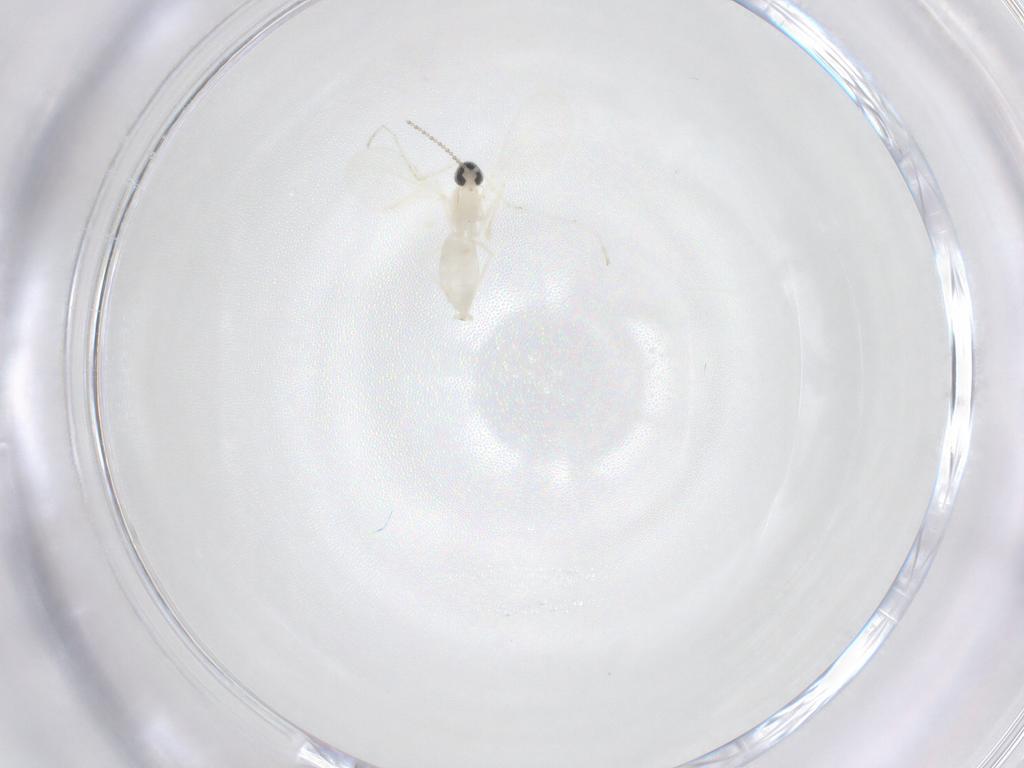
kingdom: Animalia
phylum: Arthropoda
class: Insecta
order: Diptera
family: Cecidomyiidae
